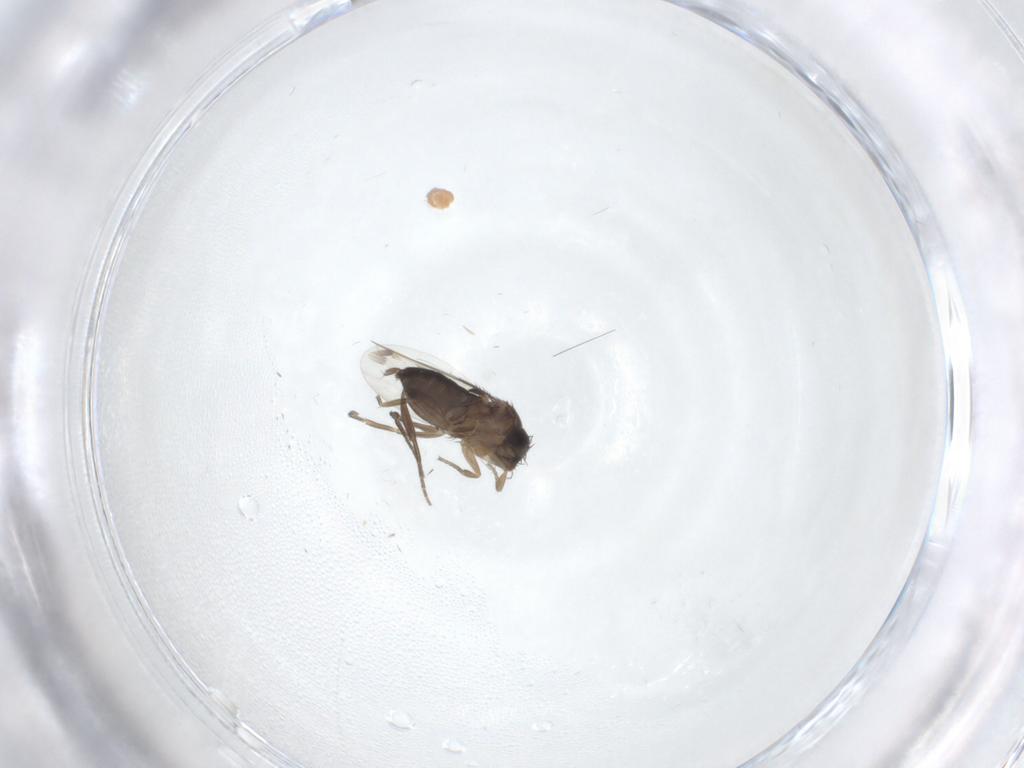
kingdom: Animalia
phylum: Arthropoda
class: Insecta
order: Diptera
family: Phoridae
